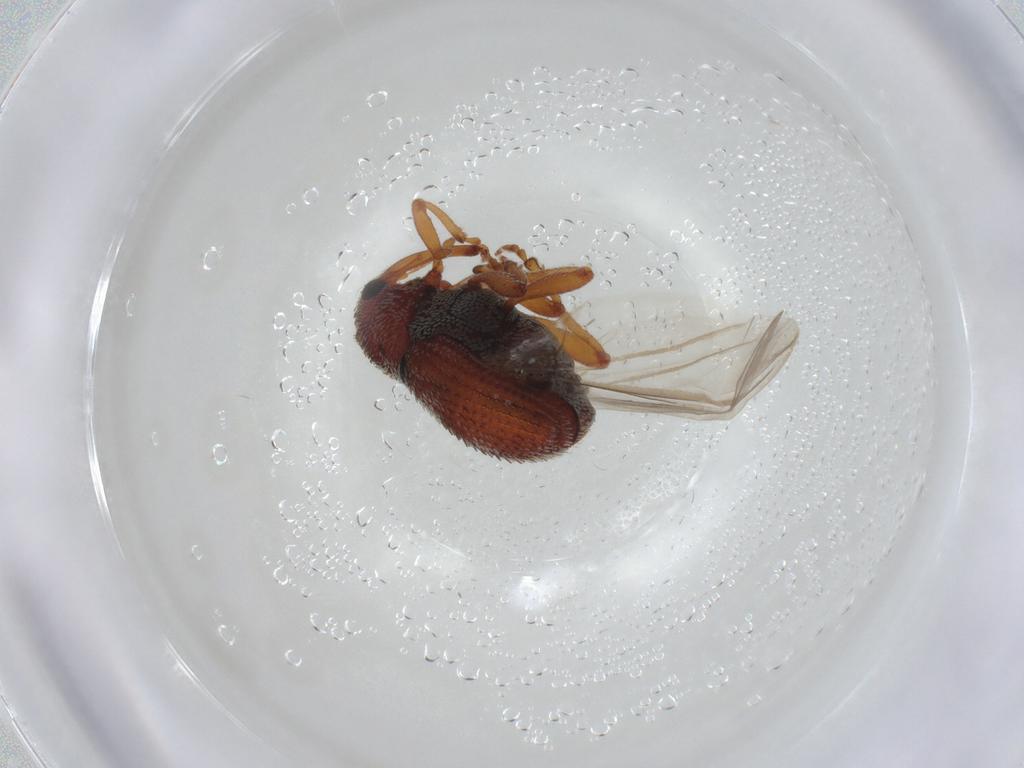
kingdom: Animalia
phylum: Arthropoda
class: Insecta
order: Coleoptera
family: Curculionidae
